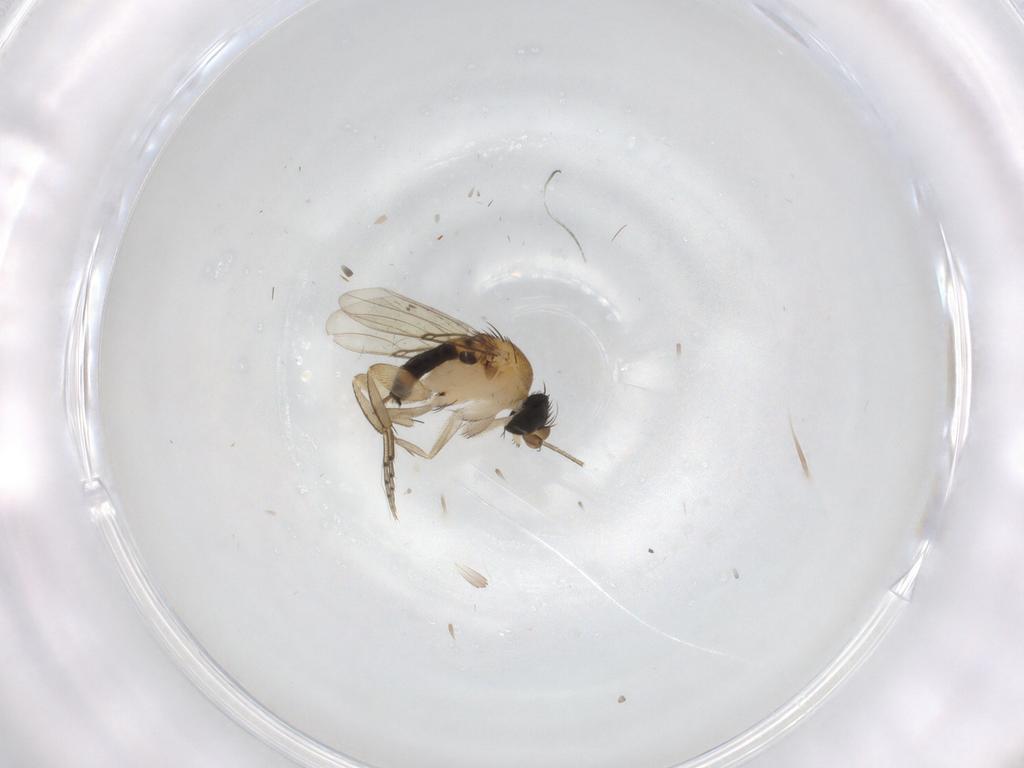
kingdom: Animalia
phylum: Arthropoda
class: Insecta
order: Diptera
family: Phoridae
